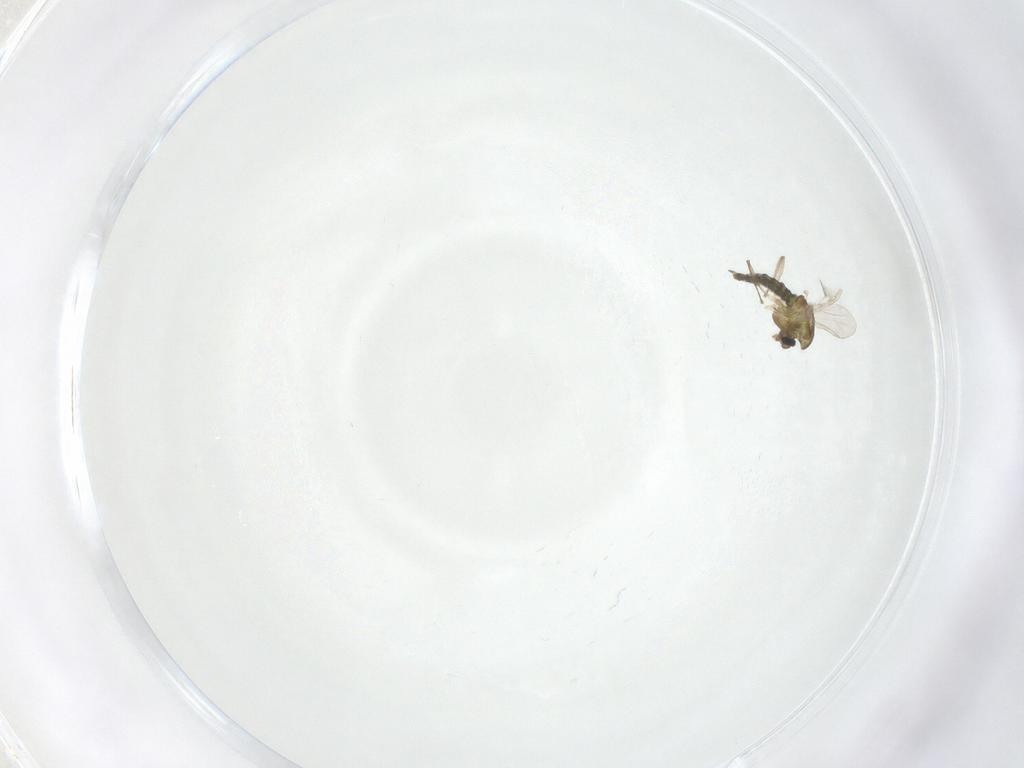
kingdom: Animalia
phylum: Arthropoda
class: Insecta
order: Diptera
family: Chironomidae
